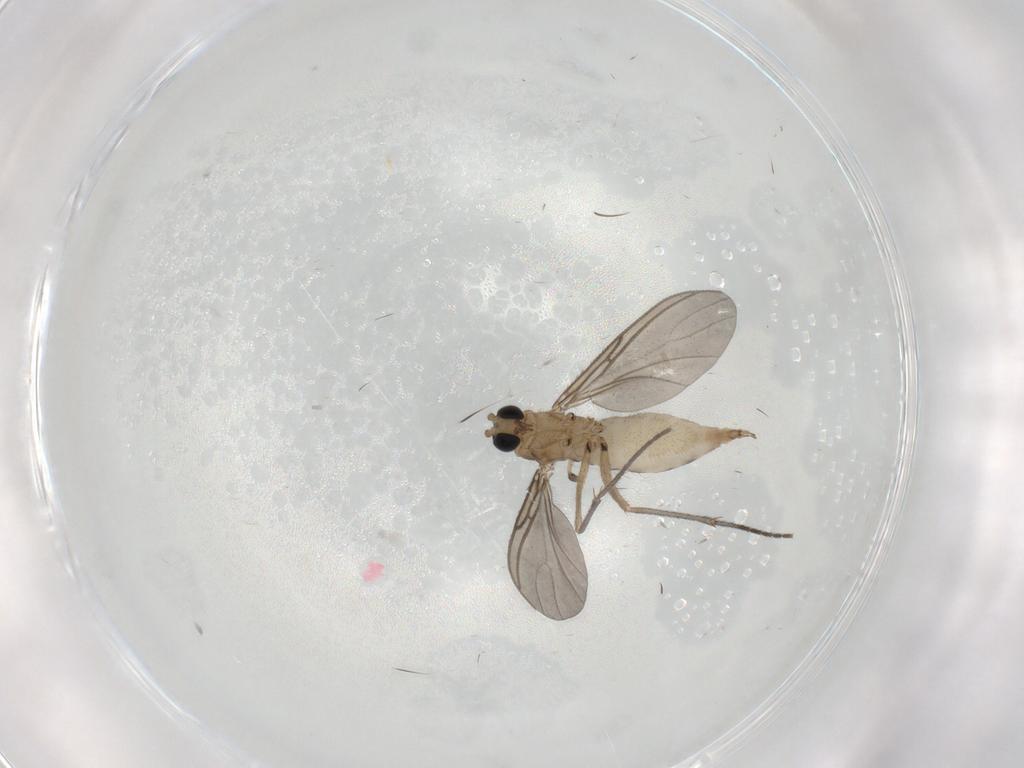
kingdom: Animalia
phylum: Arthropoda
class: Insecta
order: Diptera
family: Sciaridae
